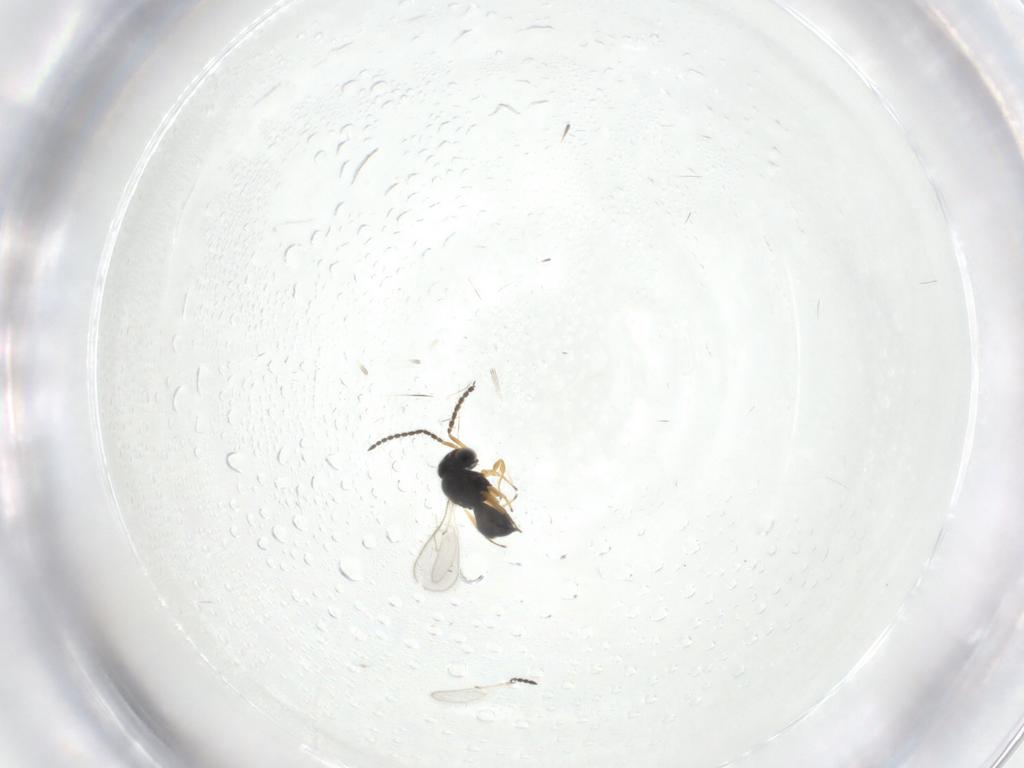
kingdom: Animalia
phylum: Arthropoda
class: Insecta
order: Hymenoptera
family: Scelionidae
